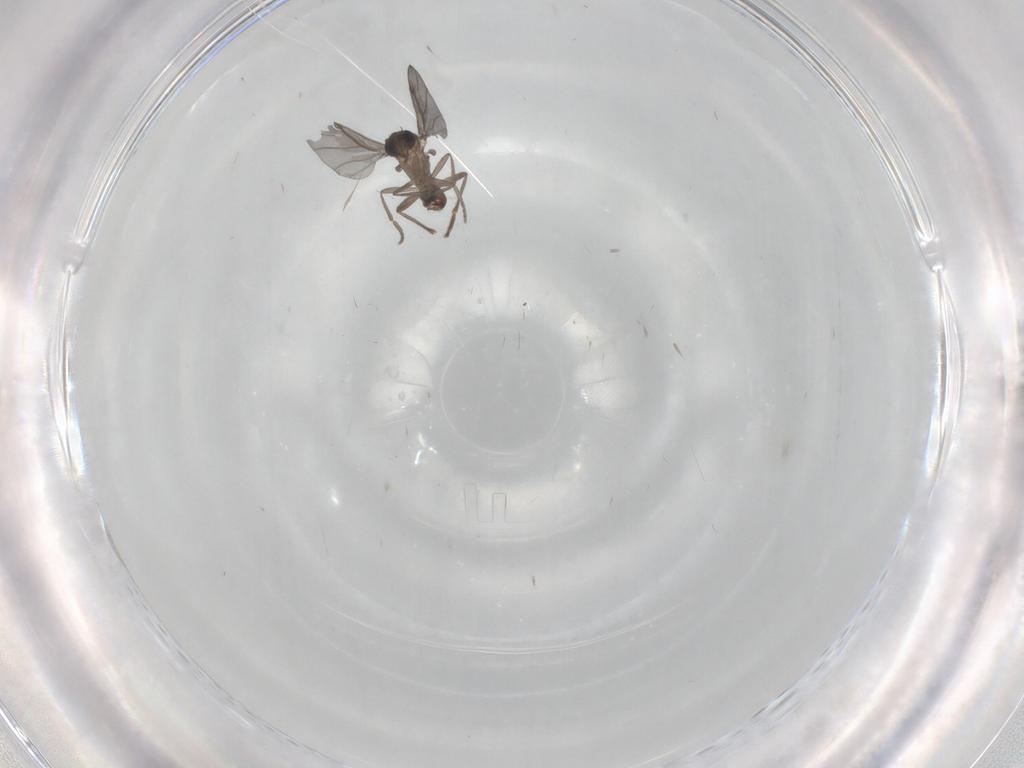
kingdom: Animalia
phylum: Arthropoda
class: Insecta
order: Diptera
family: Phoridae
